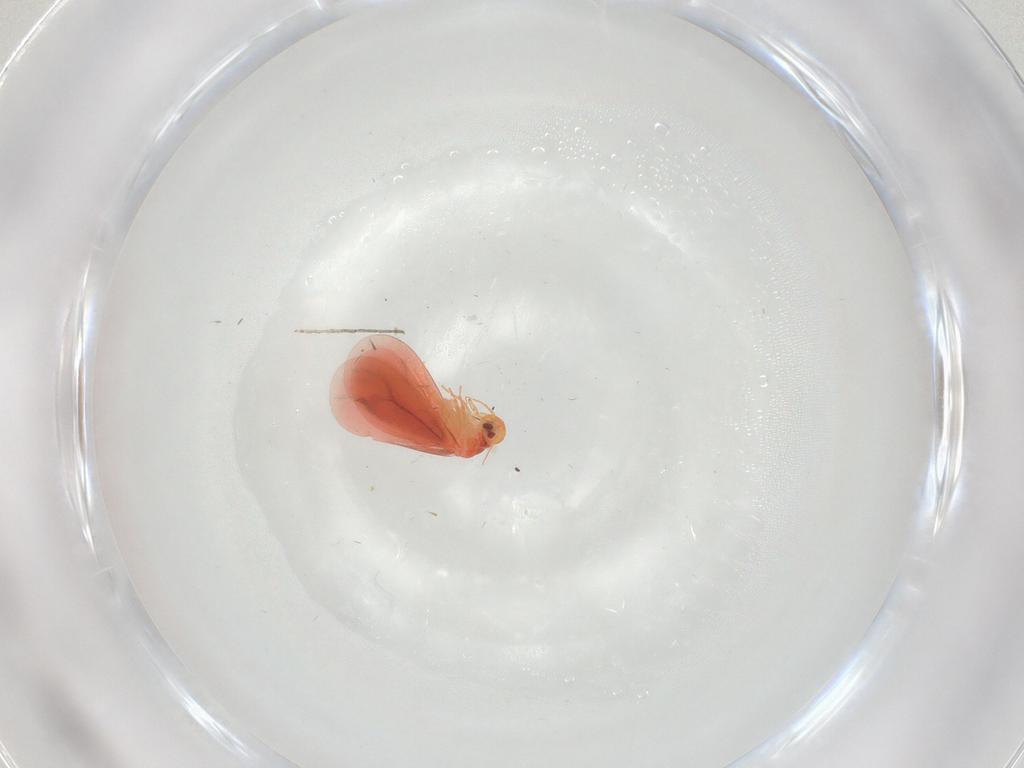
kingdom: Animalia
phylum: Arthropoda
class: Insecta
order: Hemiptera
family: Aleyrodidae
